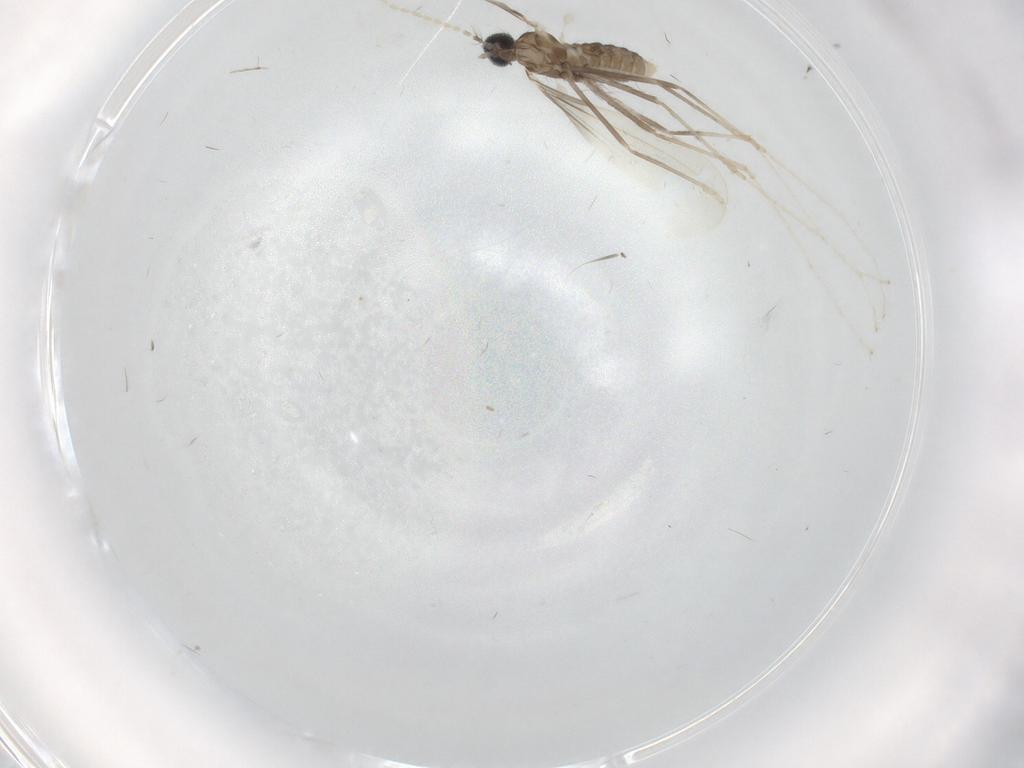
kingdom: Animalia
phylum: Arthropoda
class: Insecta
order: Diptera
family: Cecidomyiidae
